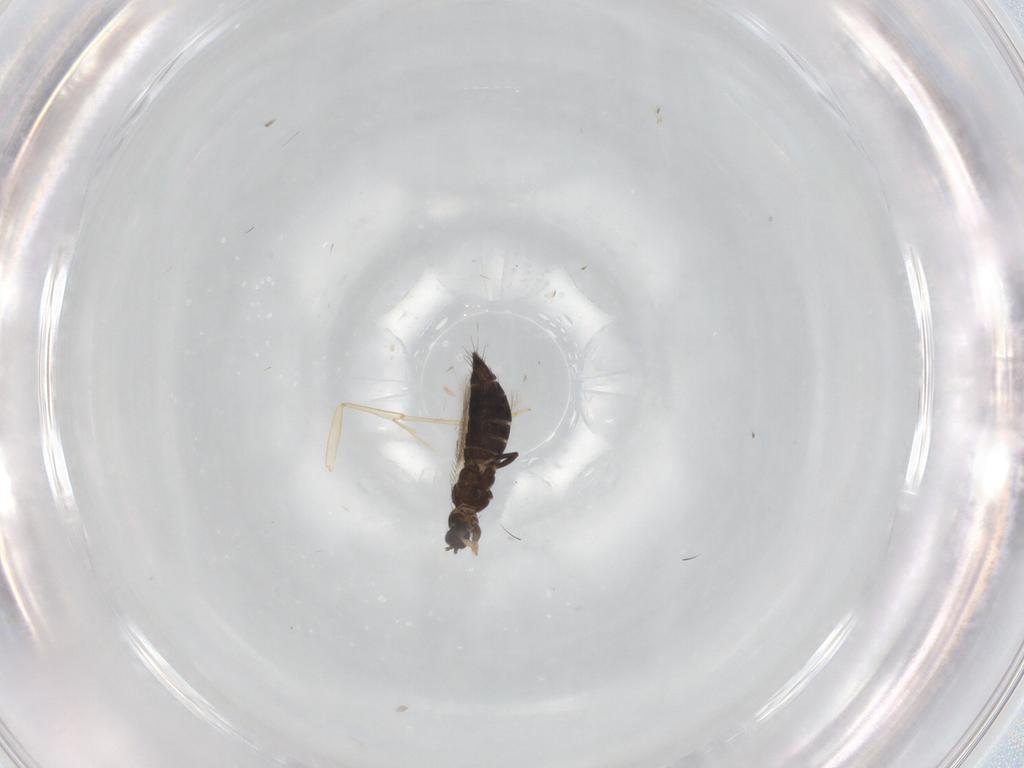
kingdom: Animalia
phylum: Arthropoda
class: Insecta
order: Thysanoptera
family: Thripidae
